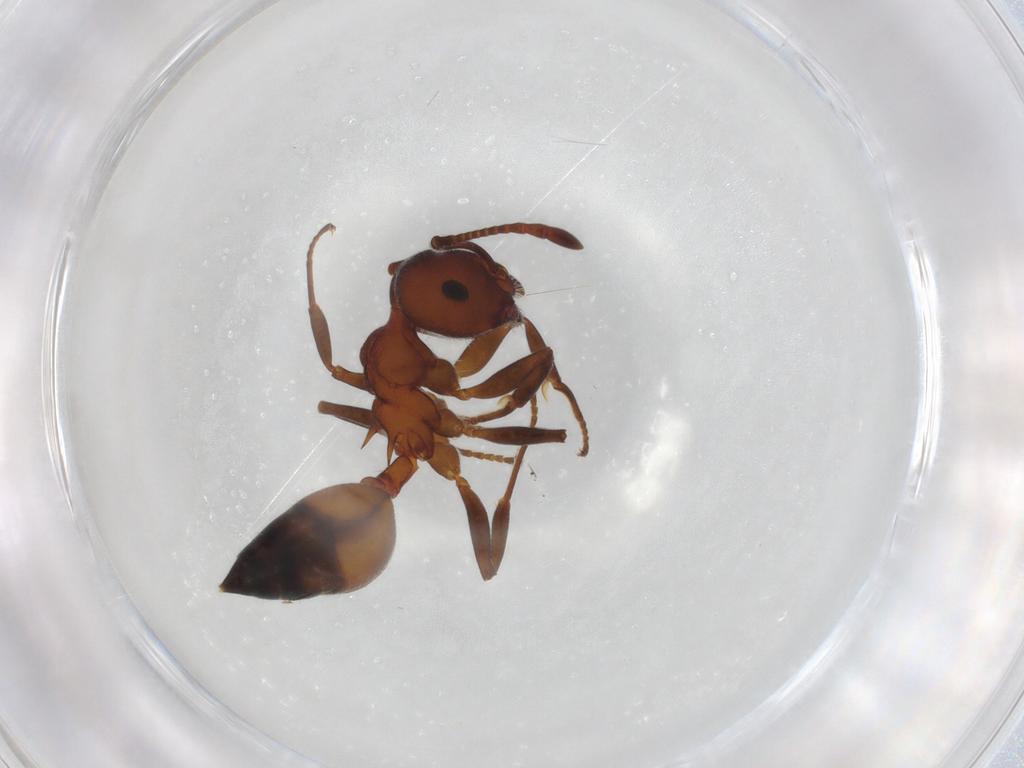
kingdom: Animalia
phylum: Arthropoda
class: Insecta
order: Hymenoptera
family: Formicidae
